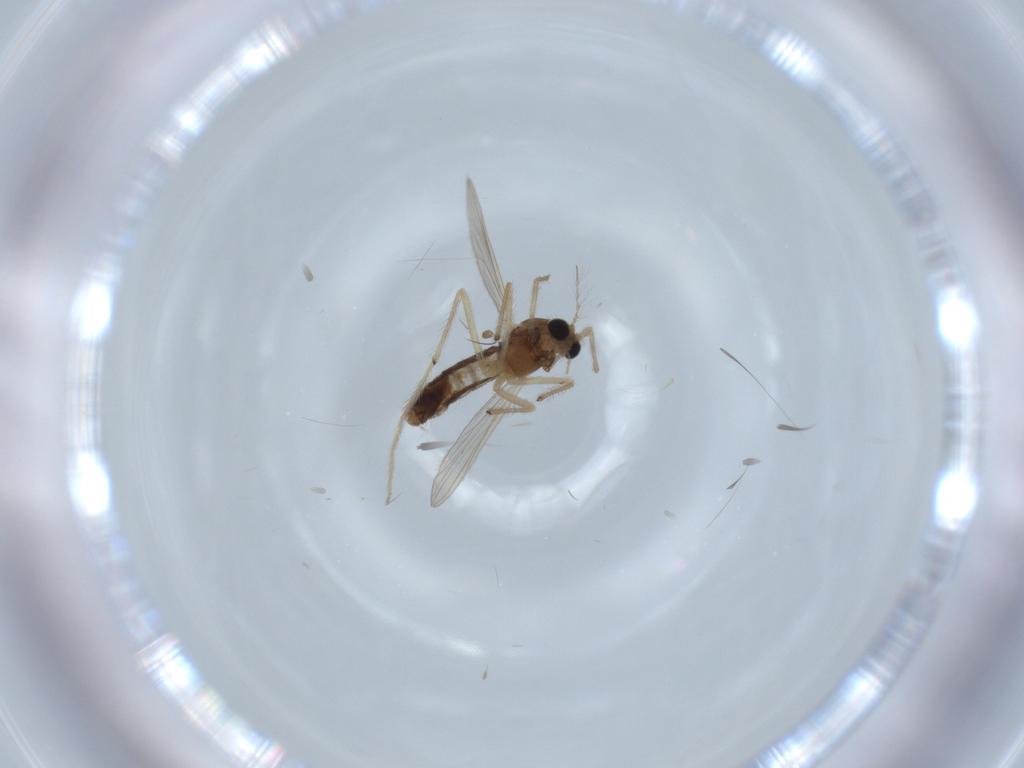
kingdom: Animalia
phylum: Arthropoda
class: Insecta
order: Diptera
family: Chironomidae
